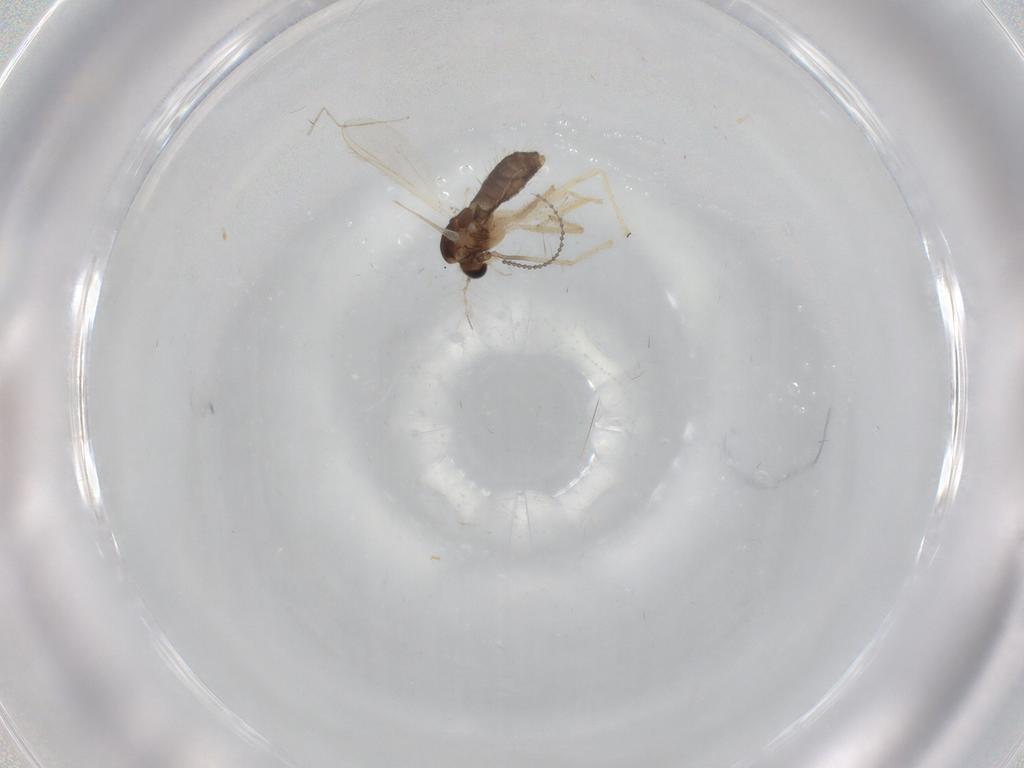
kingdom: Animalia
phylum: Arthropoda
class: Insecta
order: Diptera
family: Cecidomyiidae
